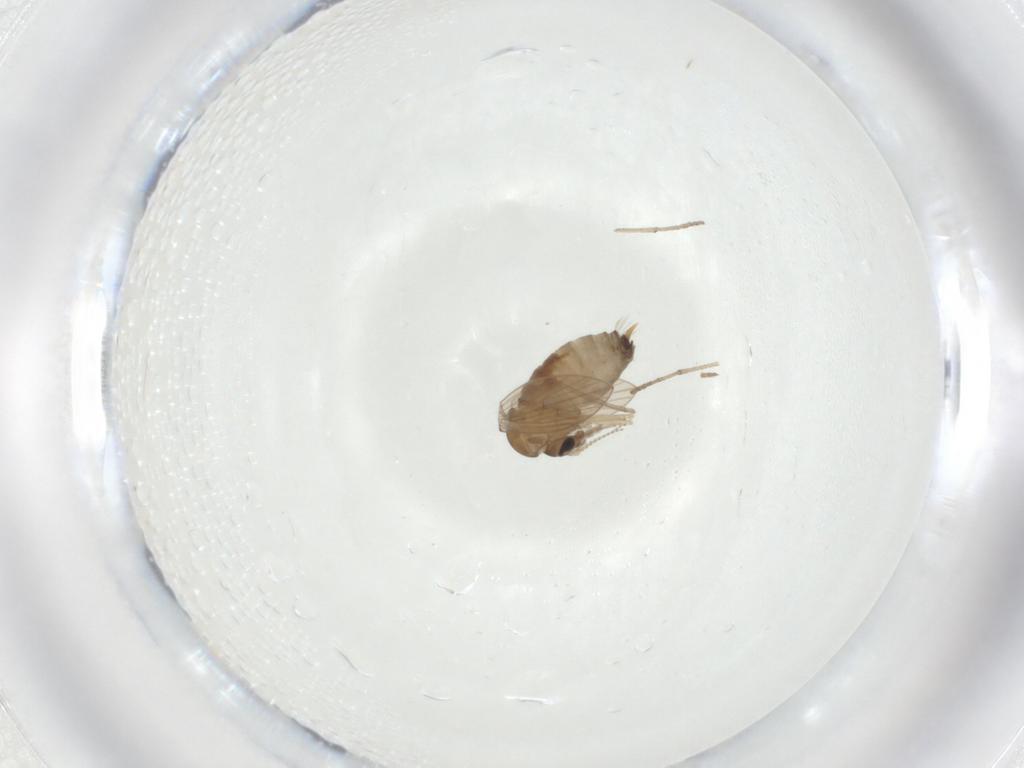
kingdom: Animalia
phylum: Arthropoda
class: Insecta
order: Diptera
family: Psychodidae
